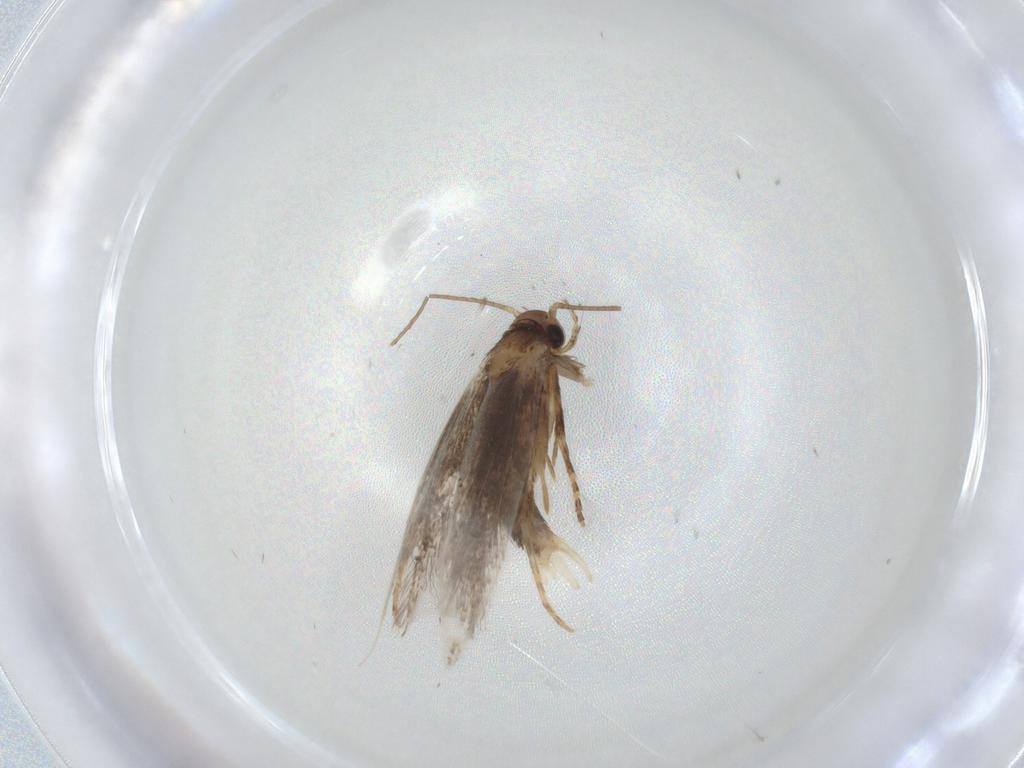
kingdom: Animalia
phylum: Arthropoda
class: Insecta
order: Lepidoptera
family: Elachistidae
